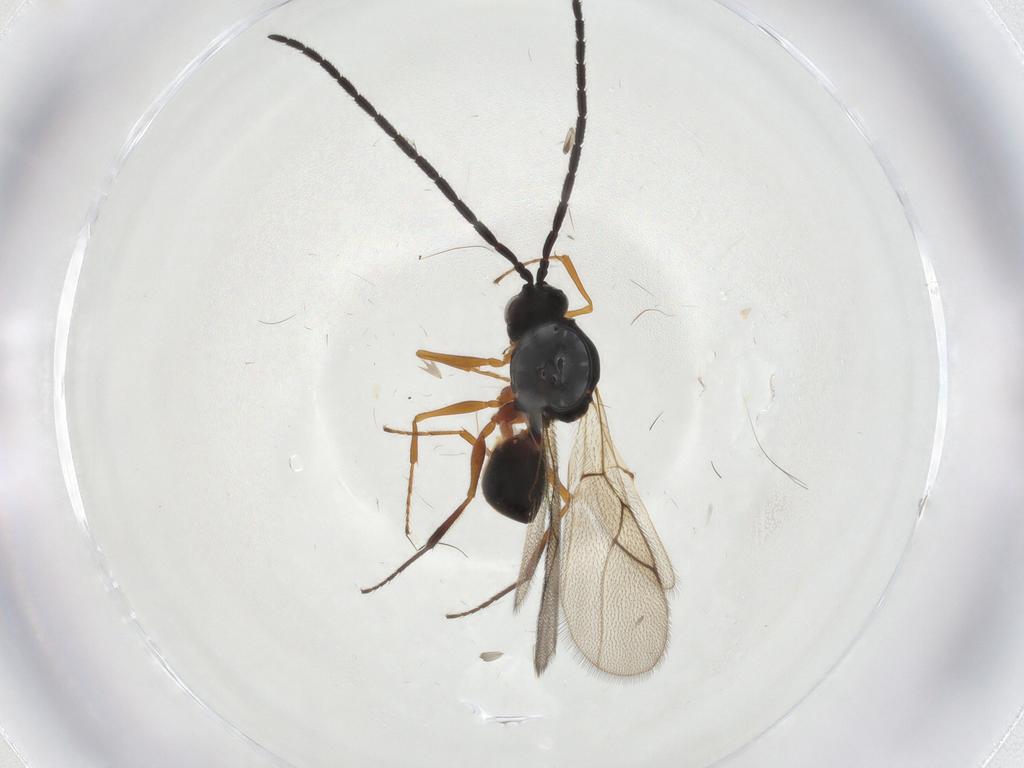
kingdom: Animalia
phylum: Arthropoda
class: Insecta
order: Hymenoptera
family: Figitidae
